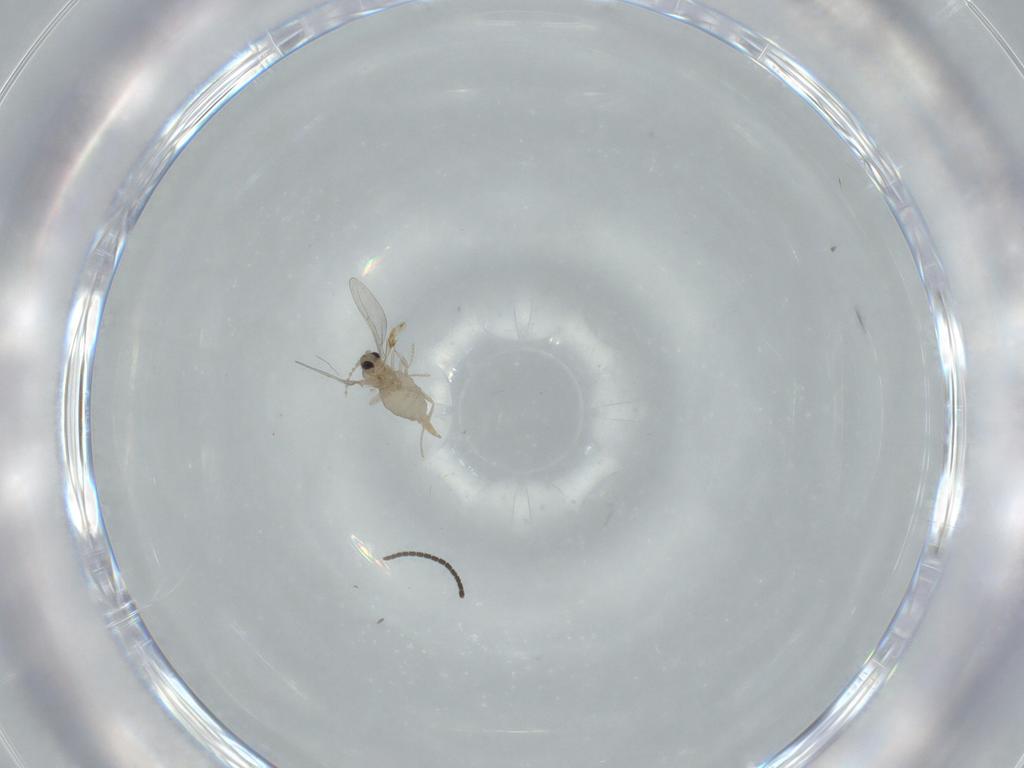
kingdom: Animalia
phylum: Arthropoda
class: Insecta
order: Diptera
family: Cecidomyiidae
